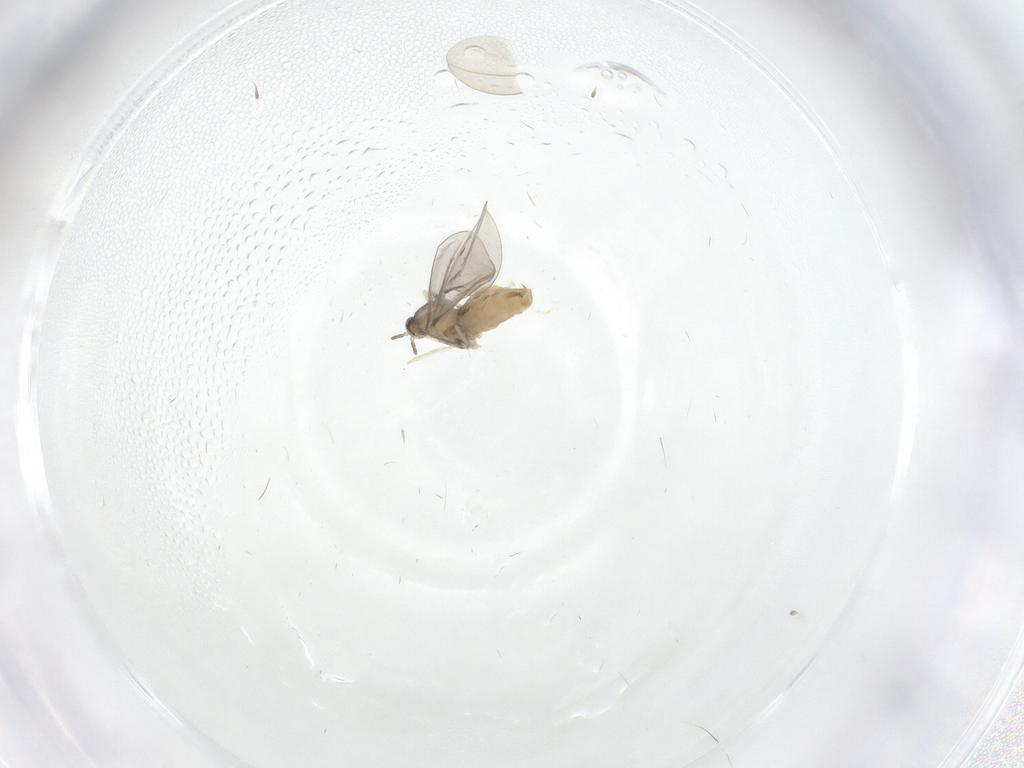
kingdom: Animalia
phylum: Arthropoda
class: Insecta
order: Diptera
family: Cecidomyiidae
